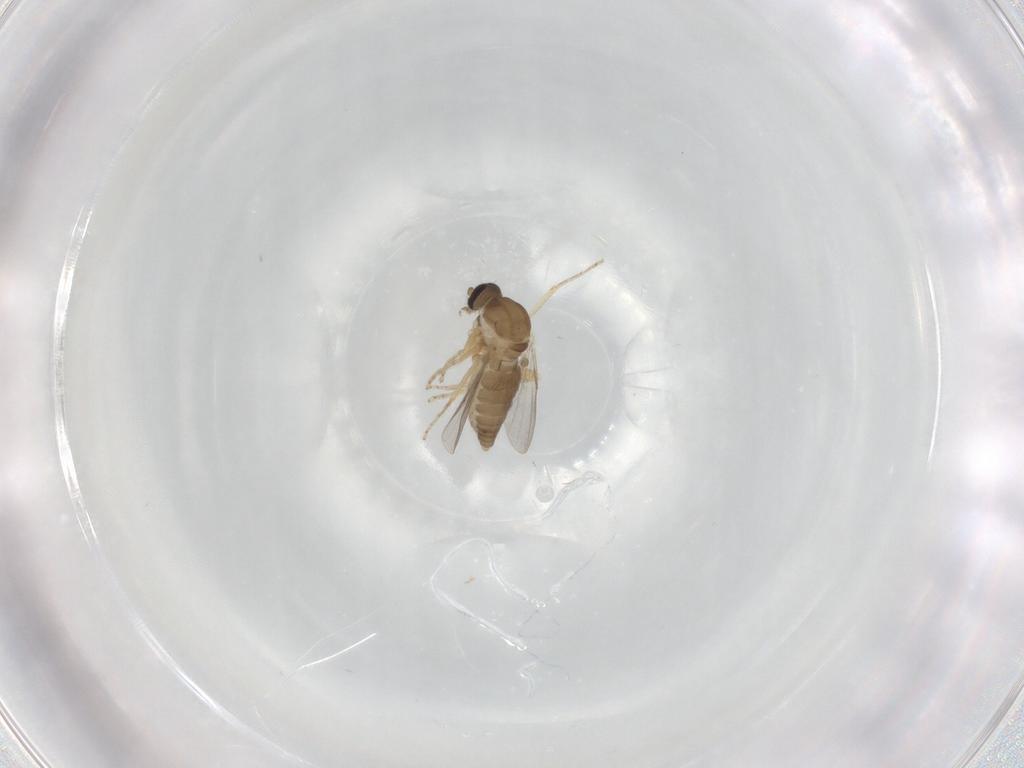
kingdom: Animalia
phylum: Arthropoda
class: Insecta
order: Diptera
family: Ceratopogonidae
